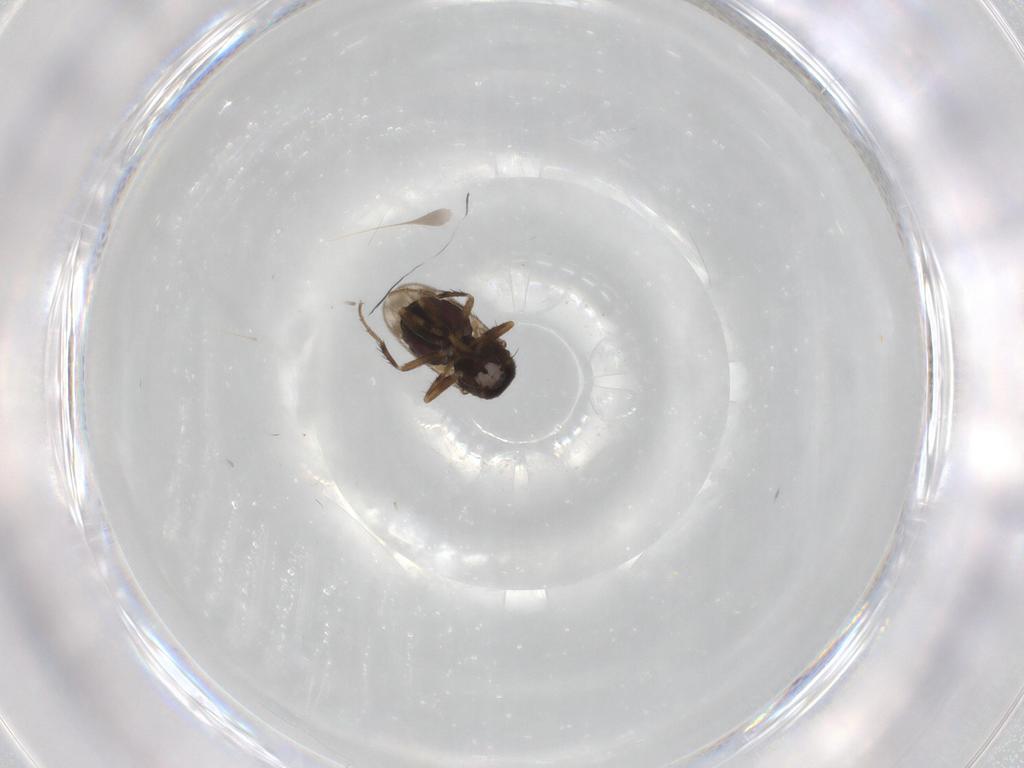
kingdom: Animalia
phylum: Arthropoda
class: Insecta
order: Diptera
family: Sphaeroceridae
